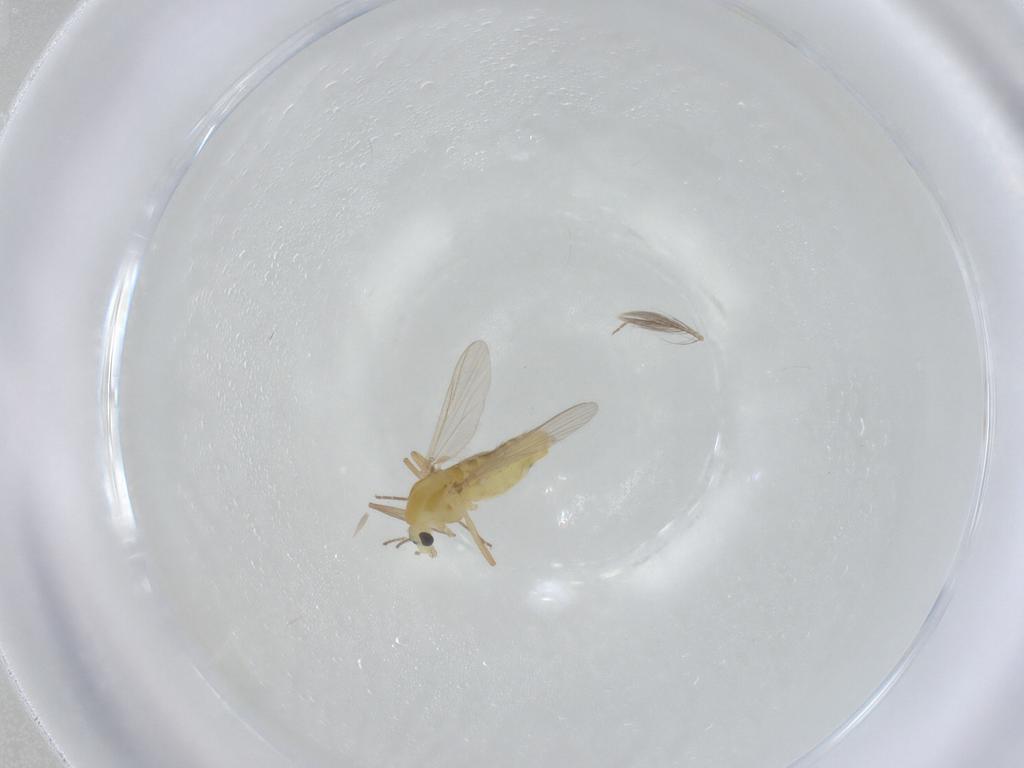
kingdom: Animalia
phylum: Arthropoda
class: Insecta
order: Diptera
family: Chironomidae
